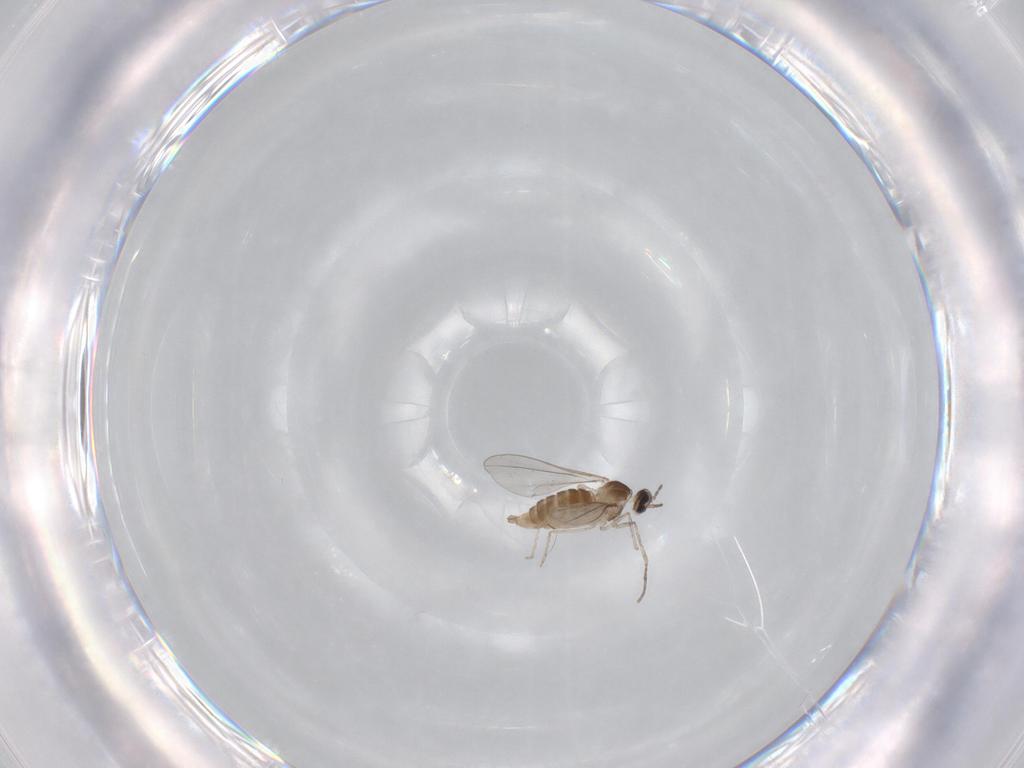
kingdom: Animalia
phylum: Arthropoda
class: Insecta
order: Diptera
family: Cecidomyiidae
